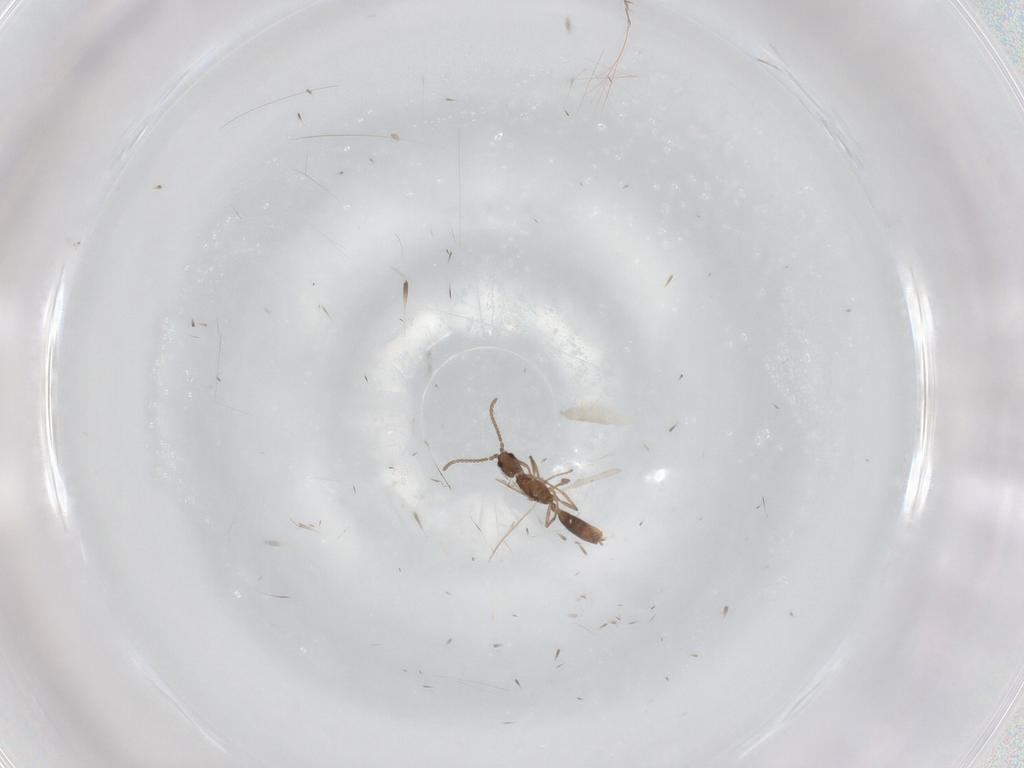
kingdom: Animalia
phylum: Arthropoda
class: Insecta
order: Hymenoptera
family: Formicidae
